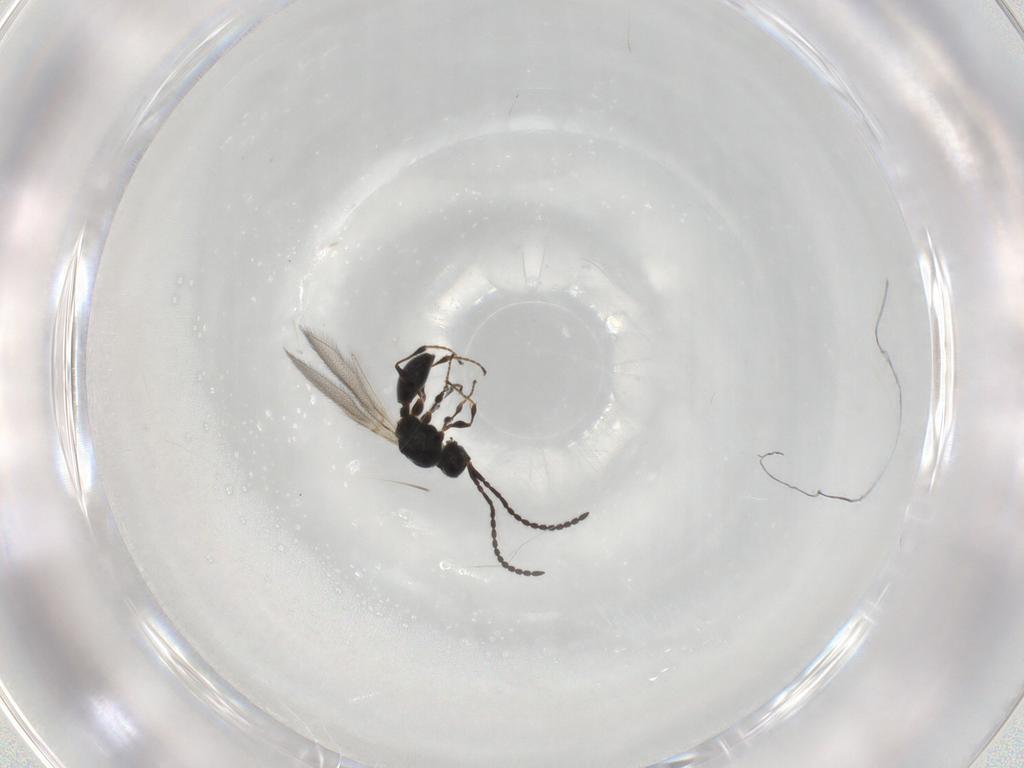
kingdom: Animalia
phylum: Arthropoda
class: Insecta
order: Hymenoptera
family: Diapriidae
